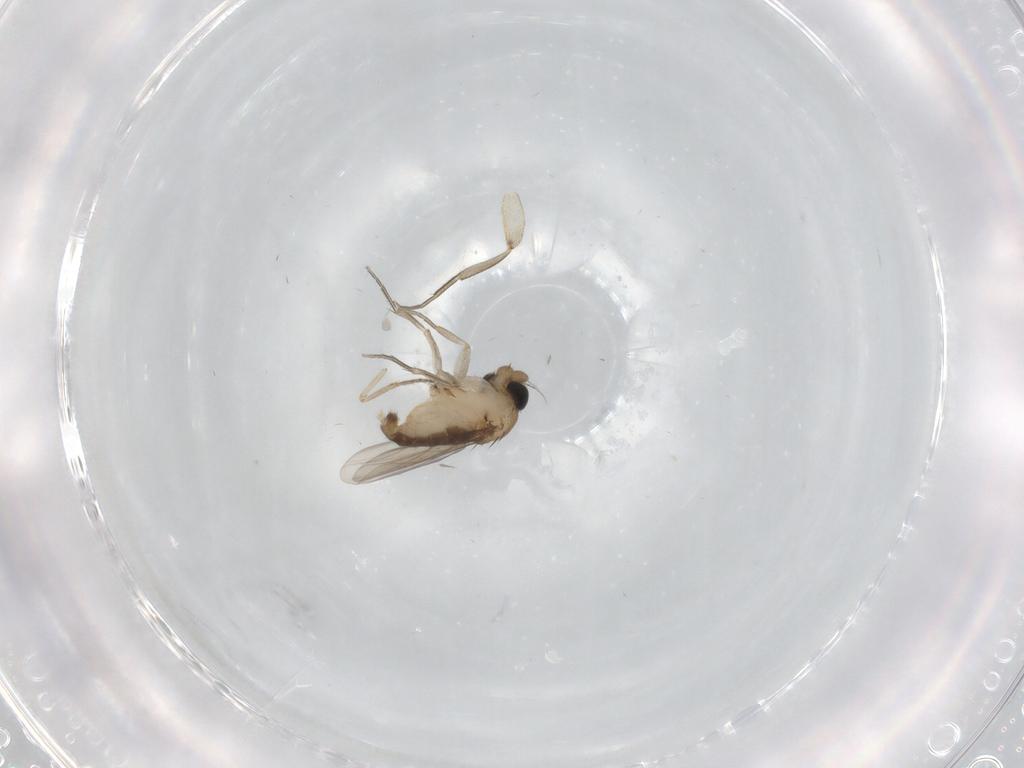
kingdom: Animalia
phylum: Arthropoda
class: Insecta
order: Diptera
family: Phoridae
